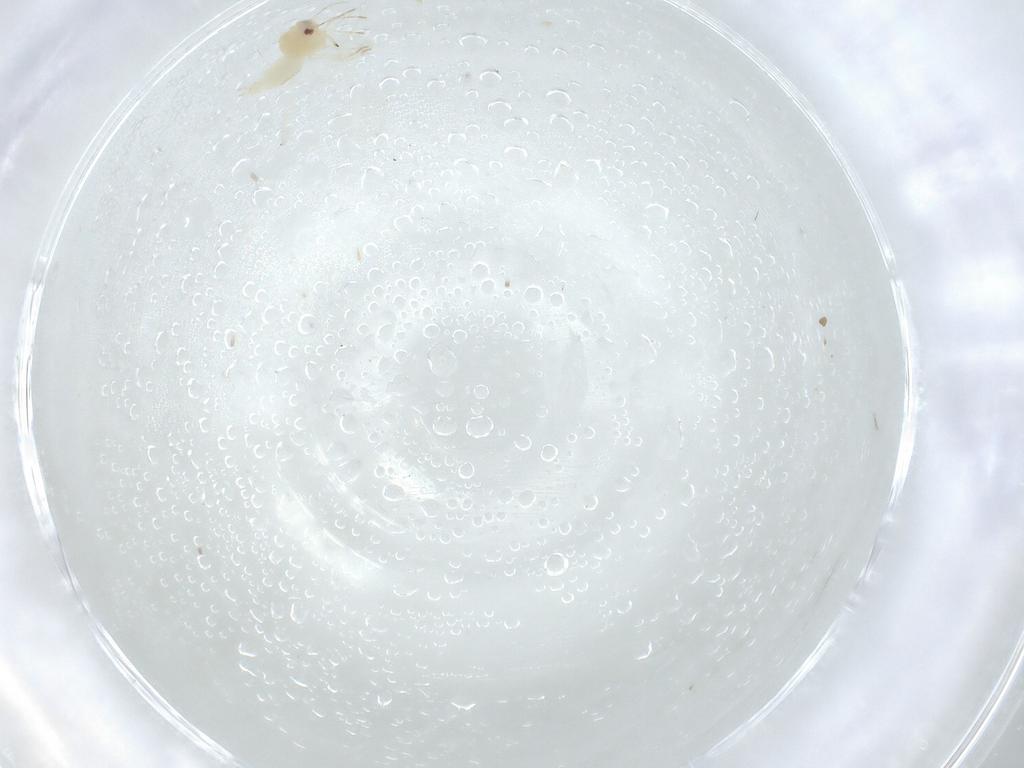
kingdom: Animalia
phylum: Arthropoda
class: Insecta
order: Hemiptera
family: Aleyrodidae
